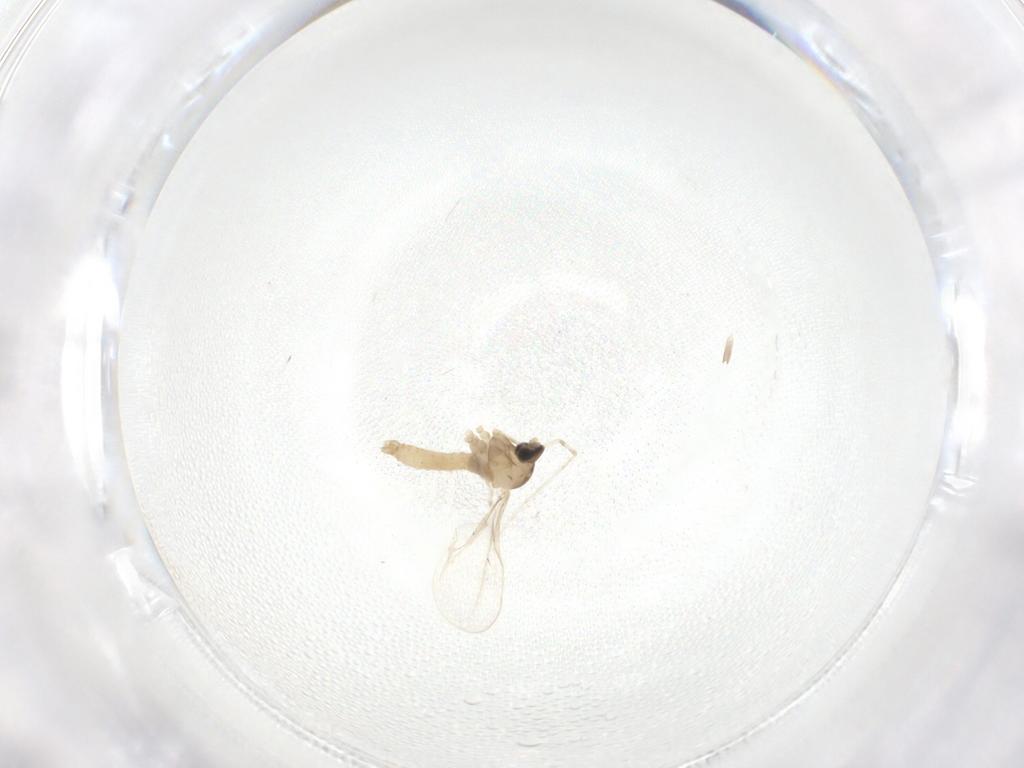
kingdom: Animalia
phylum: Arthropoda
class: Insecta
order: Diptera
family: Cecidomyiidae
